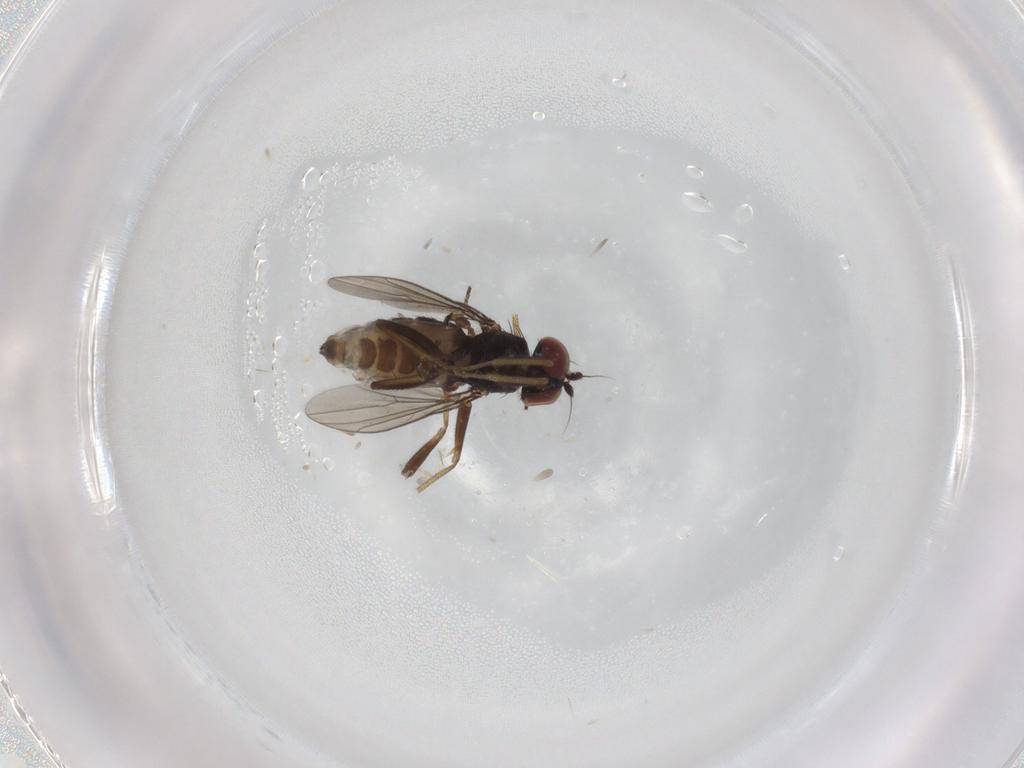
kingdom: Animalia
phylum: Arthropoda
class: Insecta
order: Diptera
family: Dolichopodidae
